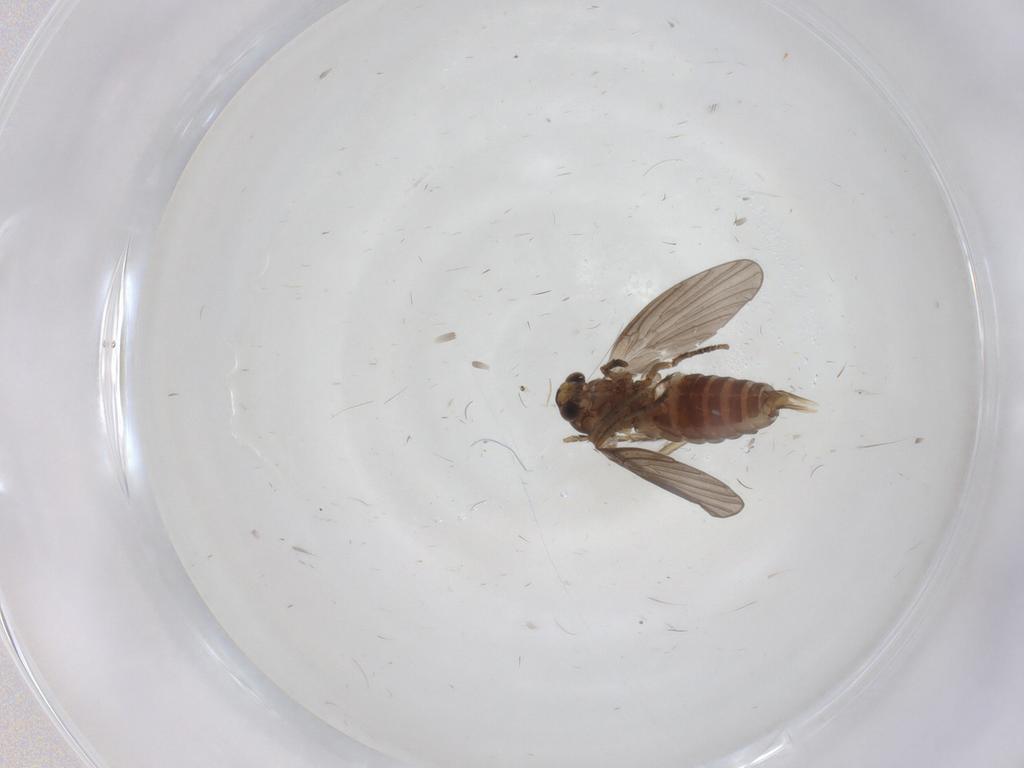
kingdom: Animalia
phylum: Arthropoda
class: Insecta
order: Diptera
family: Psychodidae
